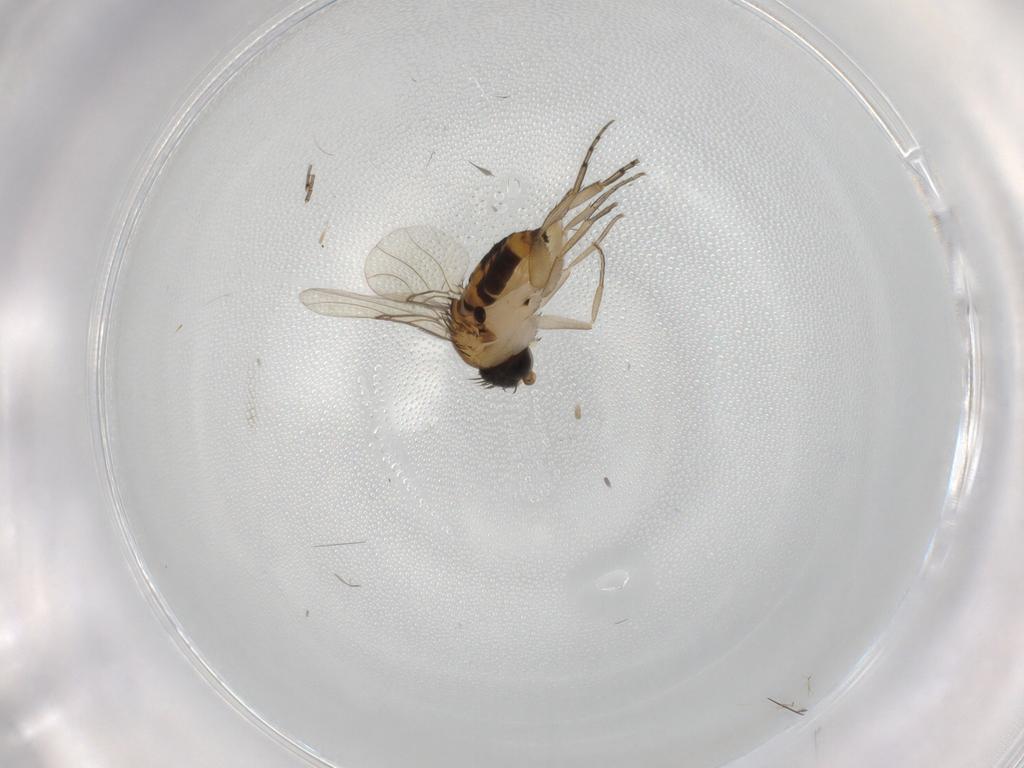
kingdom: Animalia
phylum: Arthropoda
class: Insecta
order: Diptera
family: Phoridae
